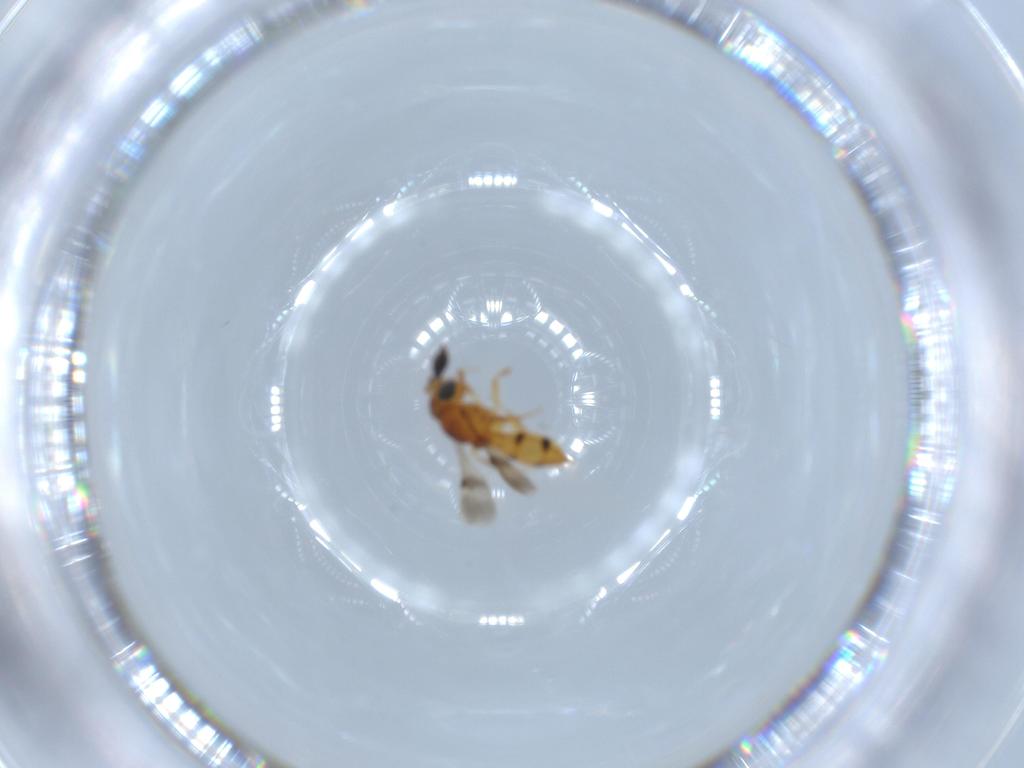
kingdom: Animalia
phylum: Arthropoda
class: Insecta
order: Hymenoptera
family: Scelionidae
